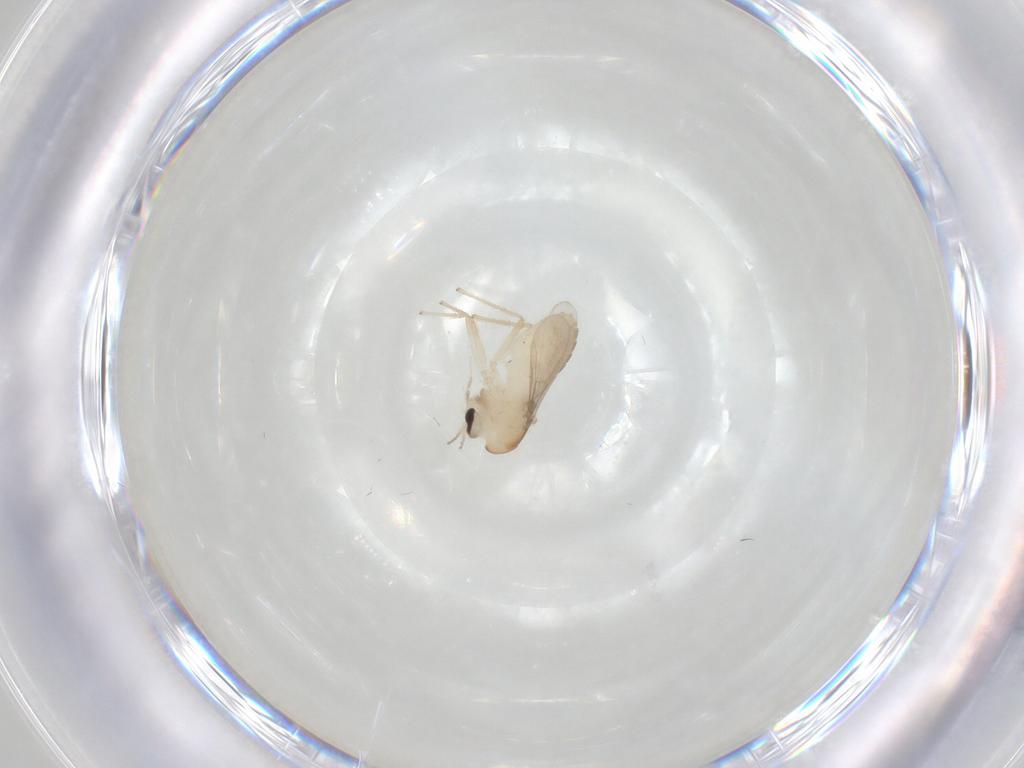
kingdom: Animalia
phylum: Arthropoda
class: Insecta
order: Diptera
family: Chironomidae
